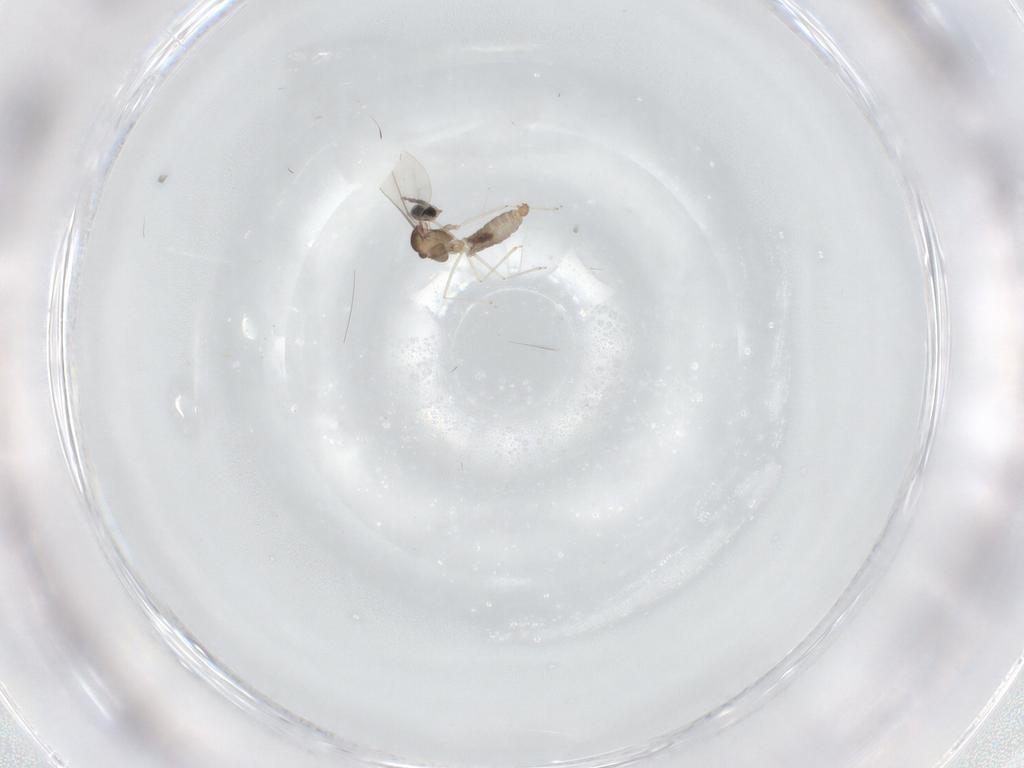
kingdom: Animalia
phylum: Arthropoda
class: Insecta
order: Diptera
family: Cecidomyiidae
